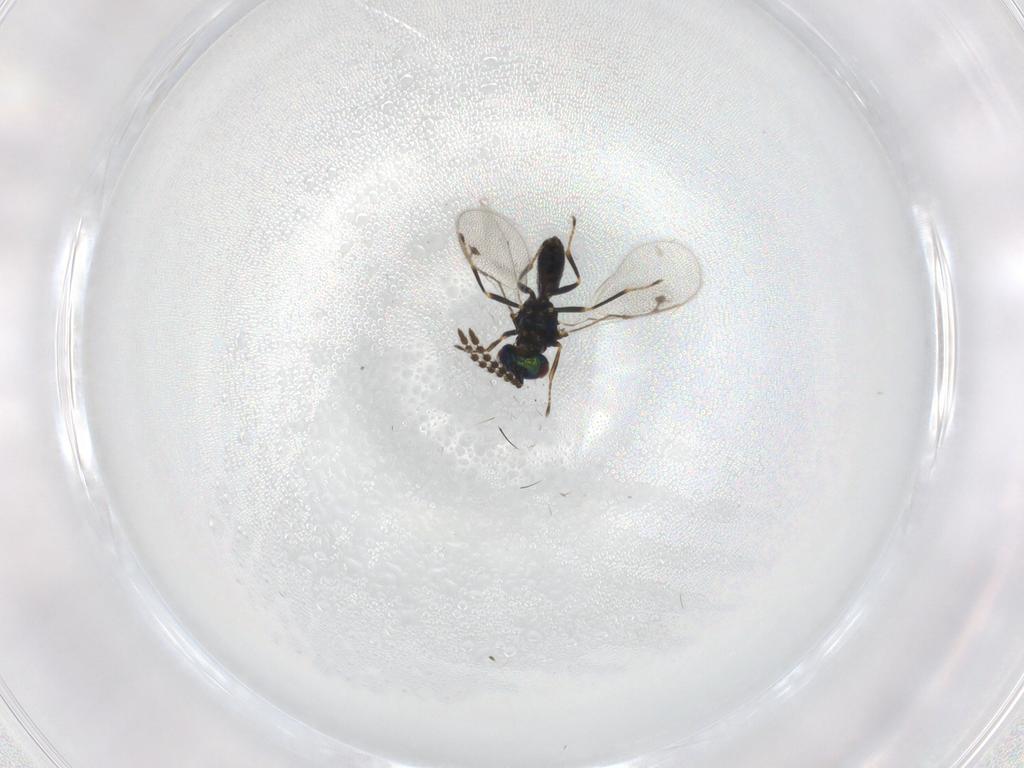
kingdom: Animalia
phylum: Arthropoda
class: Insecta
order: Hymenoptera
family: Pirenidae
